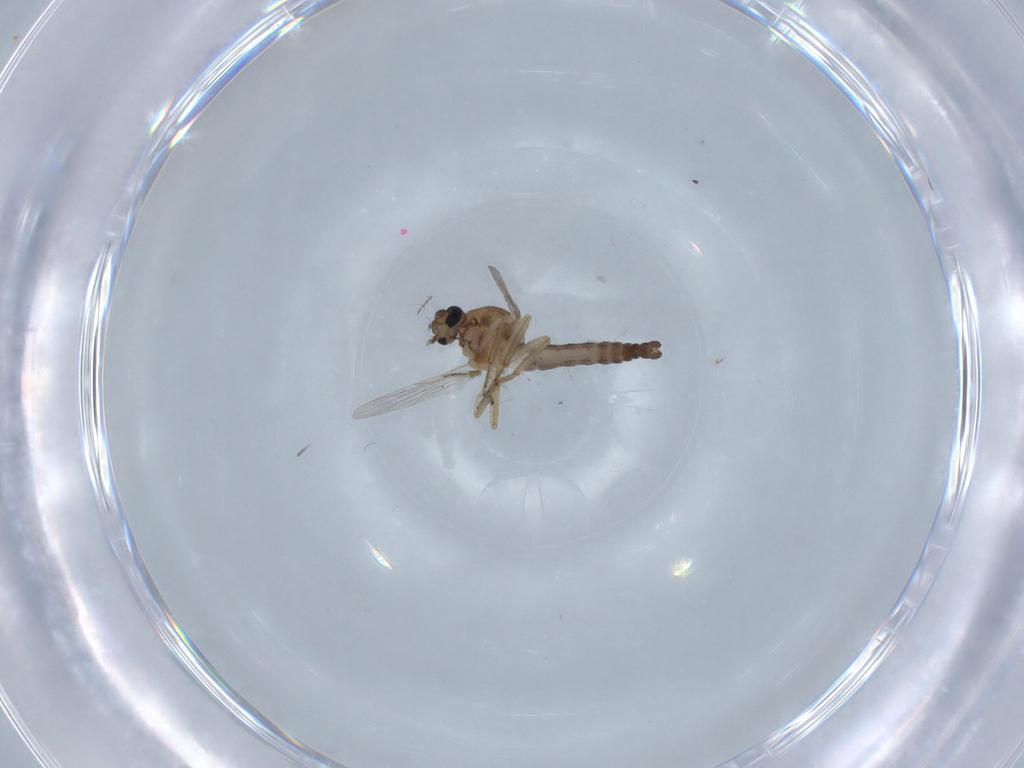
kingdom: Animalia
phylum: Arthropoda
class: Insecta
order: Diptera
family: Ceratopogonidae
